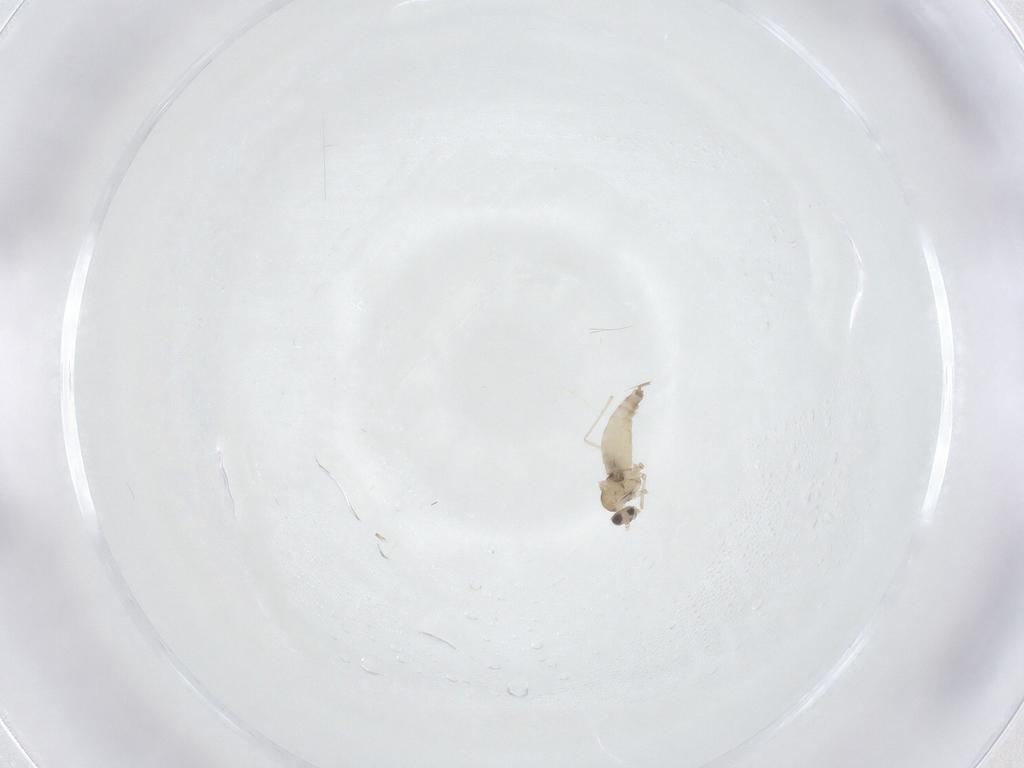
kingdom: Animalia
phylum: Arthropoda
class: Insecta
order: Diptera
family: Cecidomyiidae
